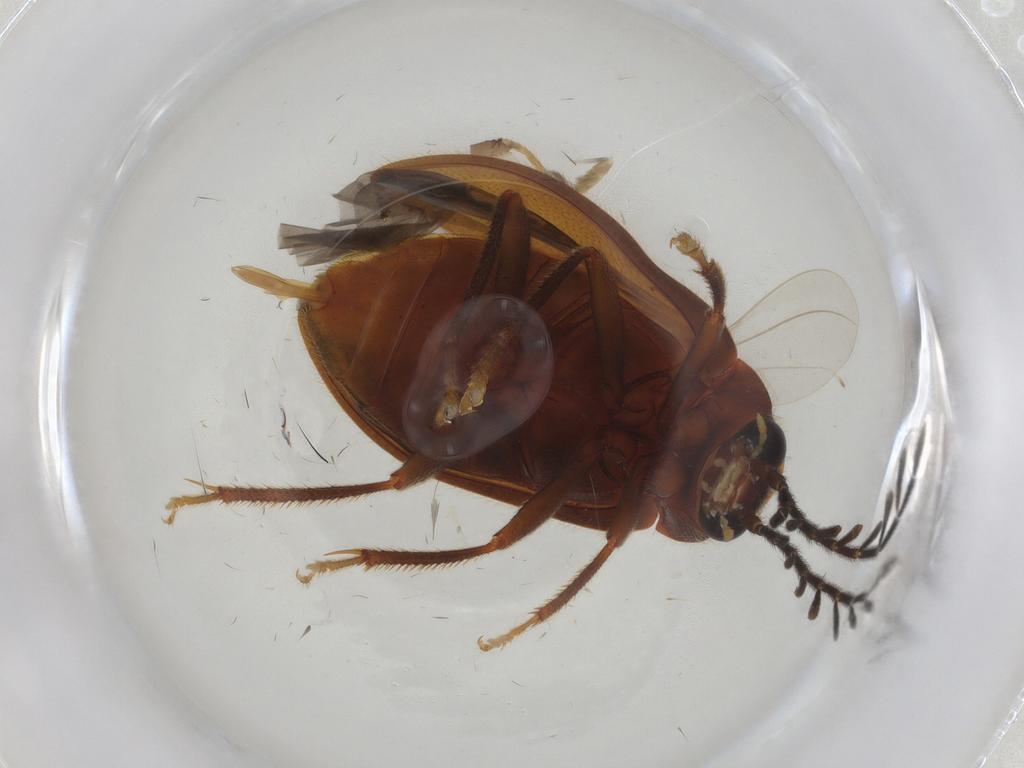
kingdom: Animalia
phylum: Arthropoda
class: Insecta
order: Coleoptera
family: Ptilodactylidae
